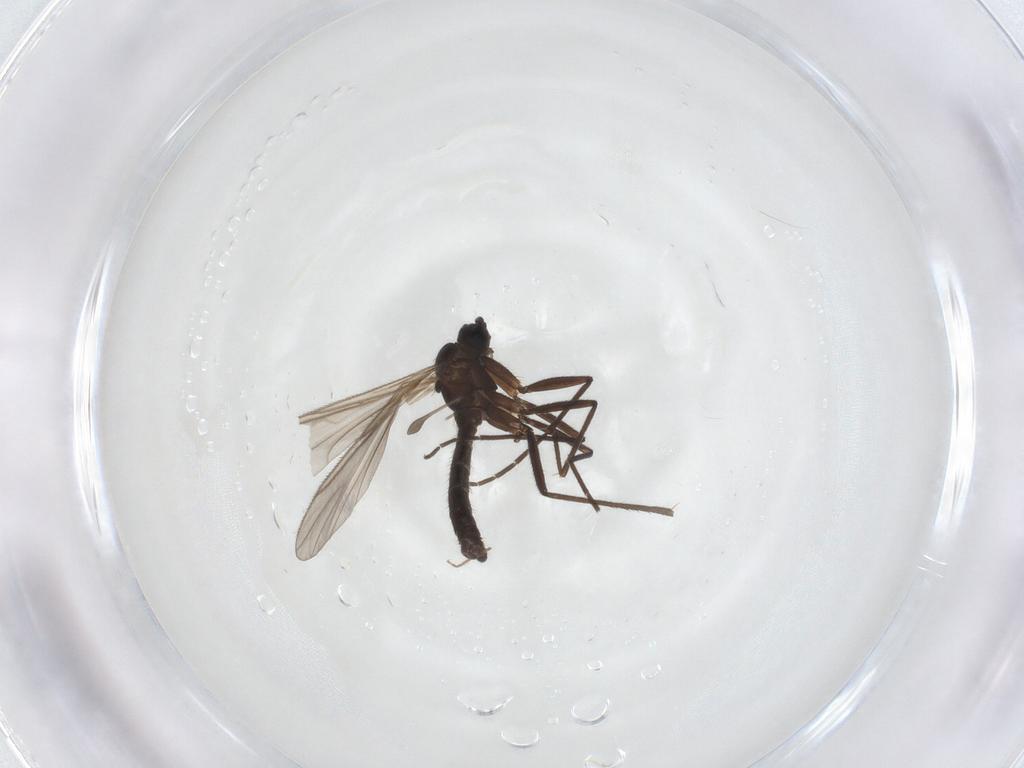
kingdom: Animalia
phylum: Arthropoda
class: Insecta
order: Diptera
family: Sciaridae
